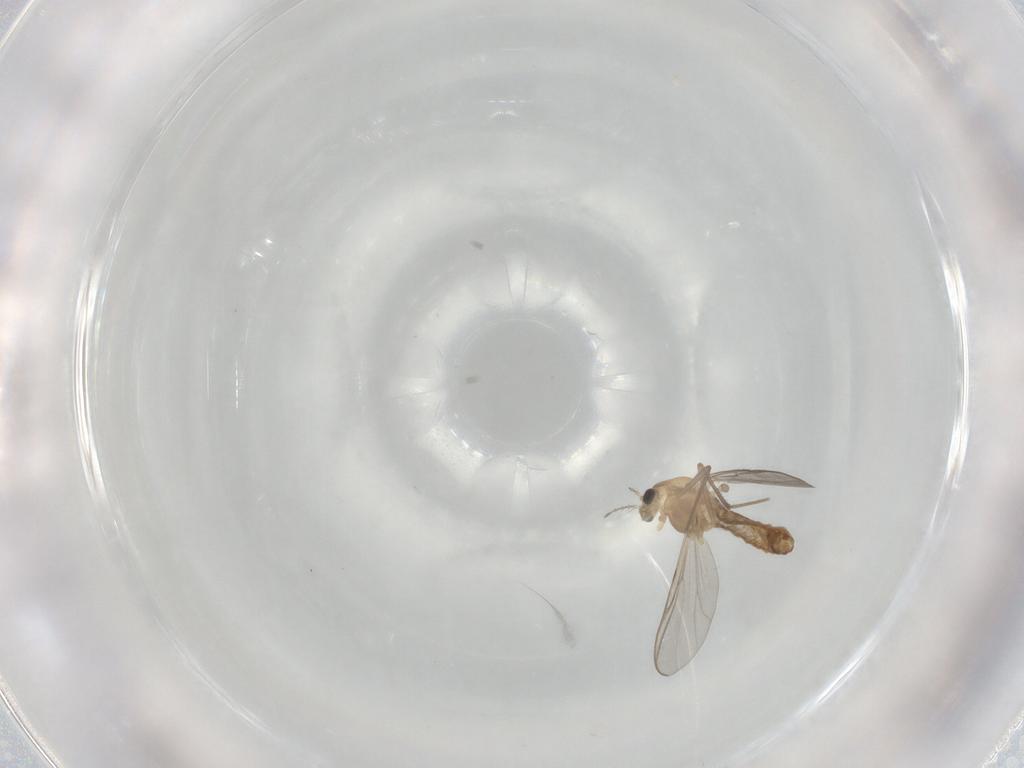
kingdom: Animalia
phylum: Arthropoda
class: Insecta
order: Diptera
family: Chironomidae
